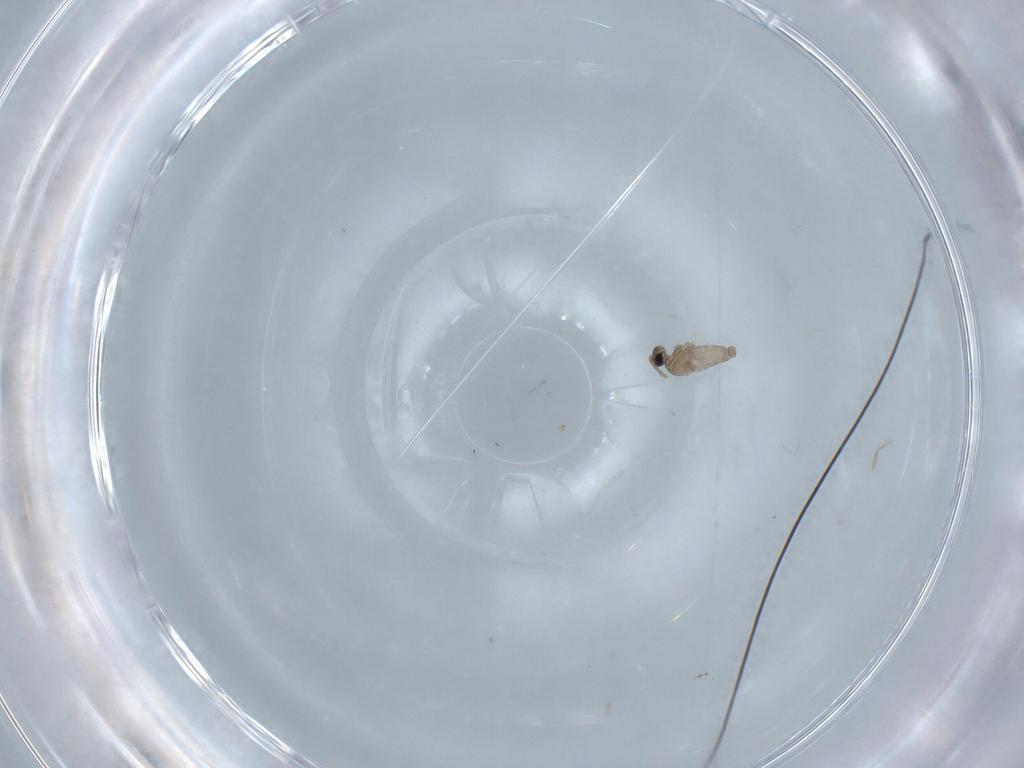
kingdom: Animalia
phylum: Arthropoda
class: Insecta
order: Diptera
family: Cecidomyiidae
